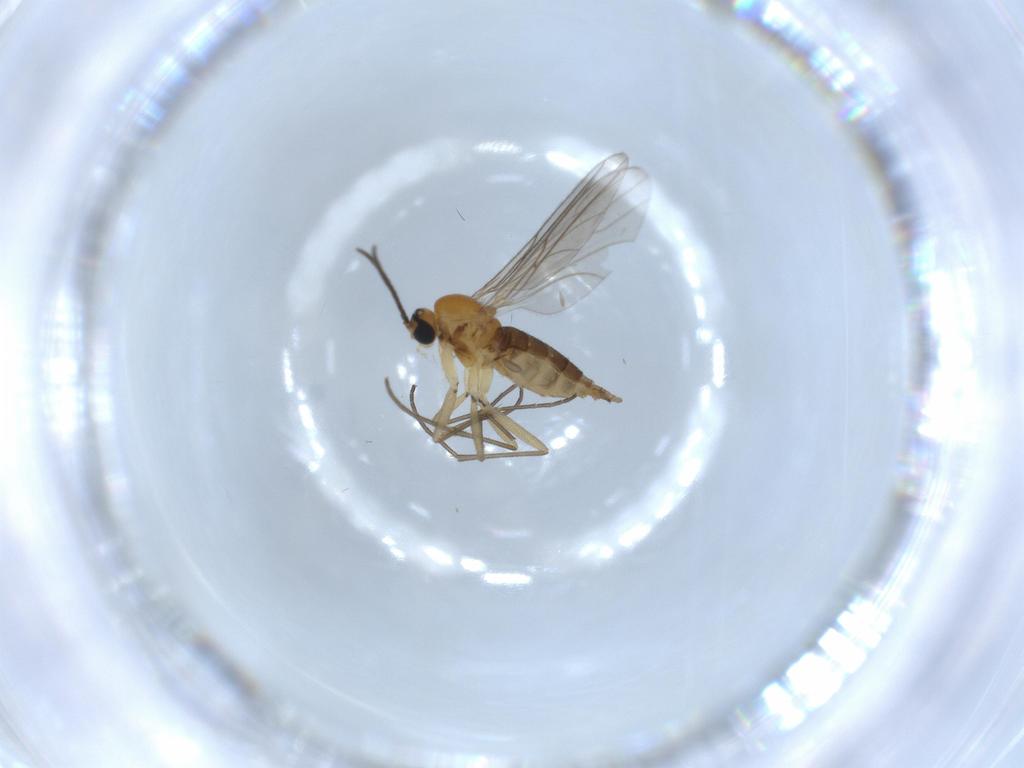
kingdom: Animalia
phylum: Arthropoda
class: Insecta
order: Diptera
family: Sciaridae
